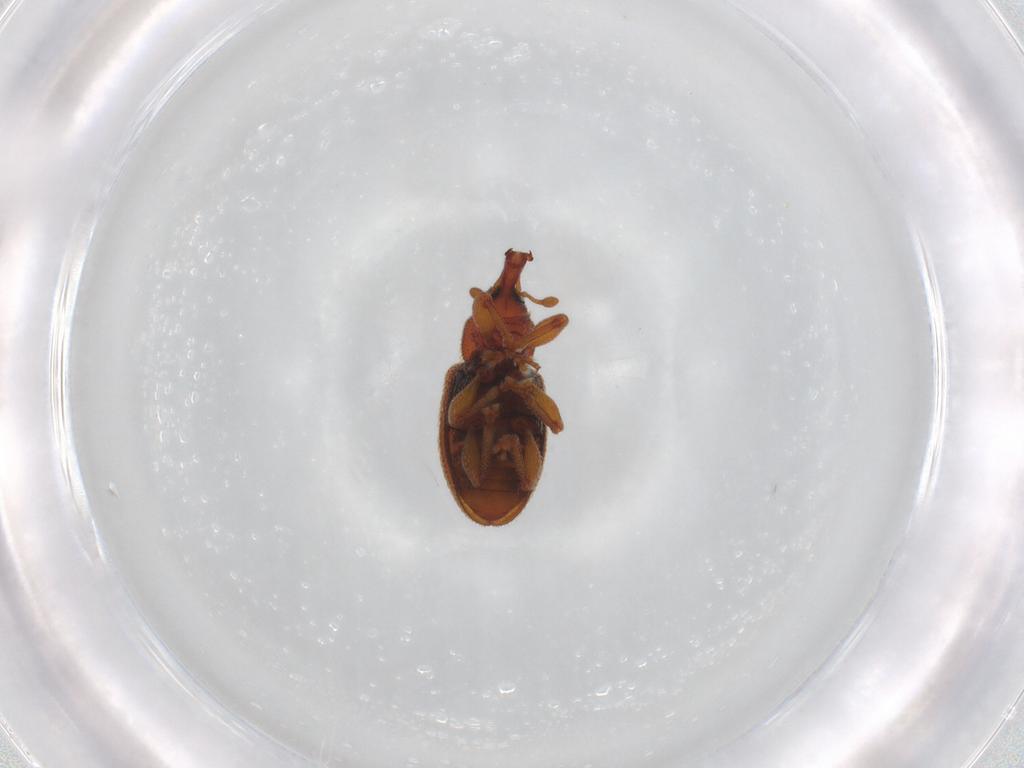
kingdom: Animalia
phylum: Arthropoda
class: Insecta
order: Coleoptera
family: Curculionidae
